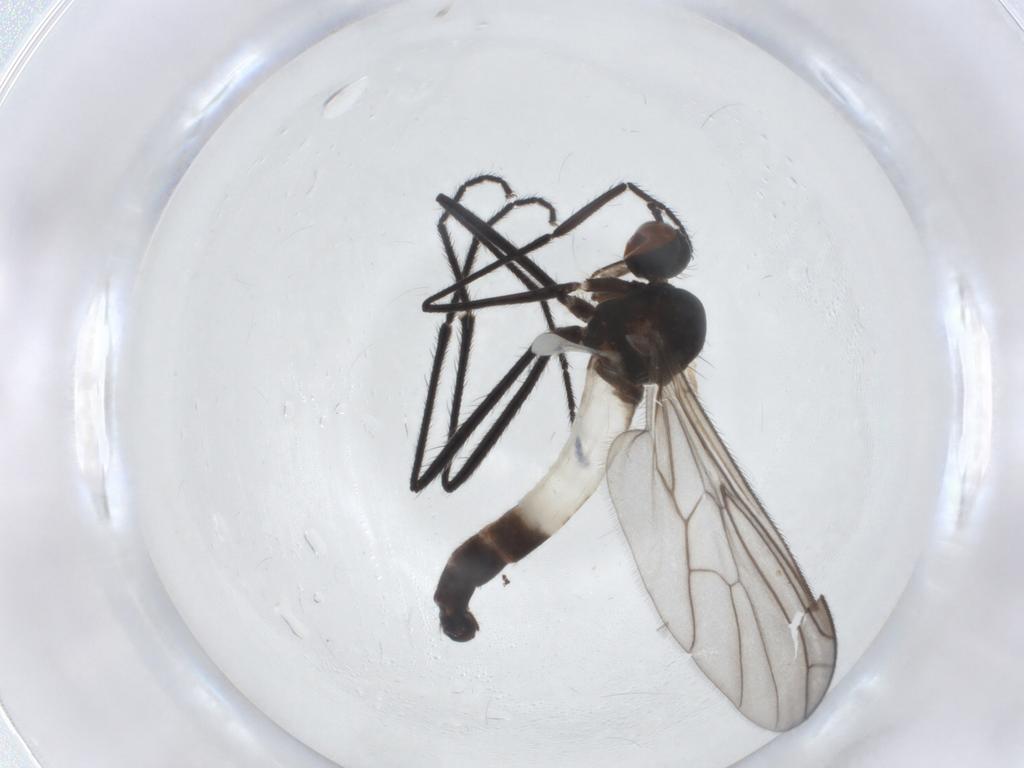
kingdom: Animalia
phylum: Arthropoda
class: Insecta
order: Diptera
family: Empididae
